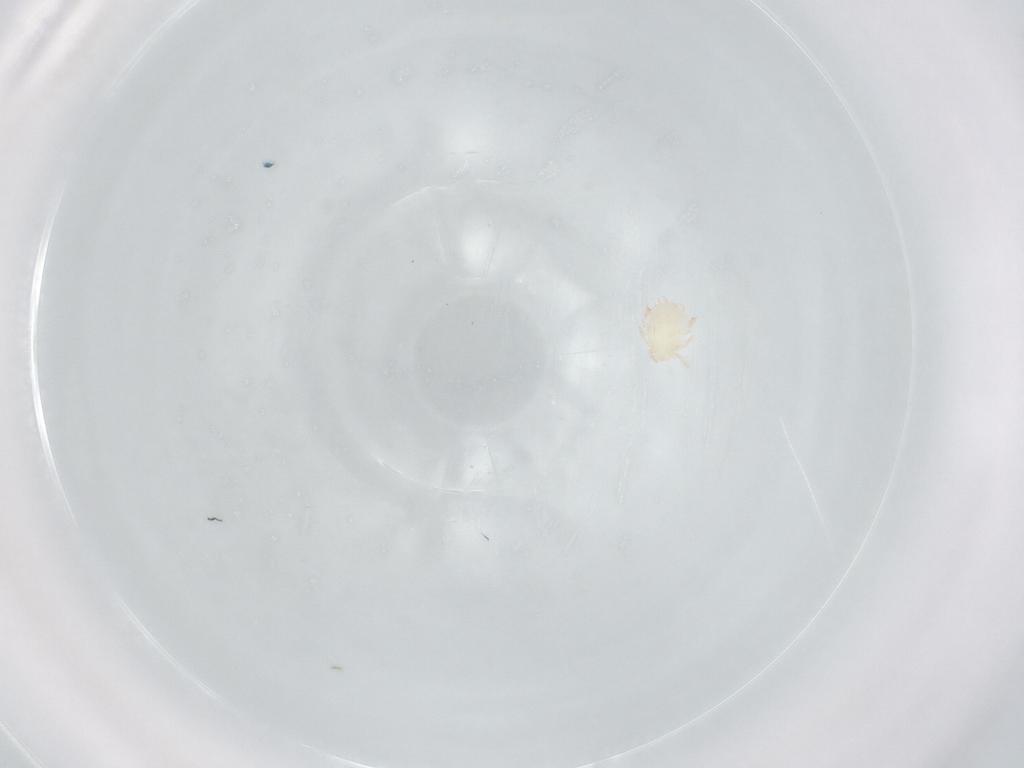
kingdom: Animalia
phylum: Arthropoda
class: Arachnida
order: Trombidiformes
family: Microtrombidiidae
